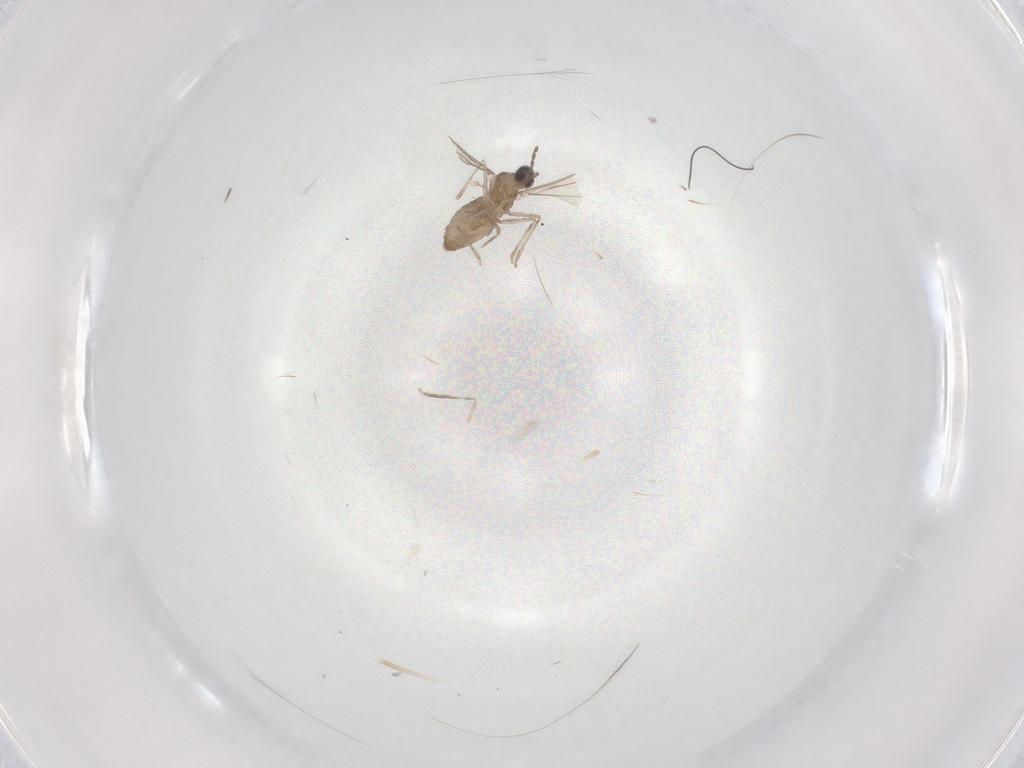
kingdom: Animalia
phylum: Arthropoda
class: Insecta
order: Diptera
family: Cecidomyiidae
